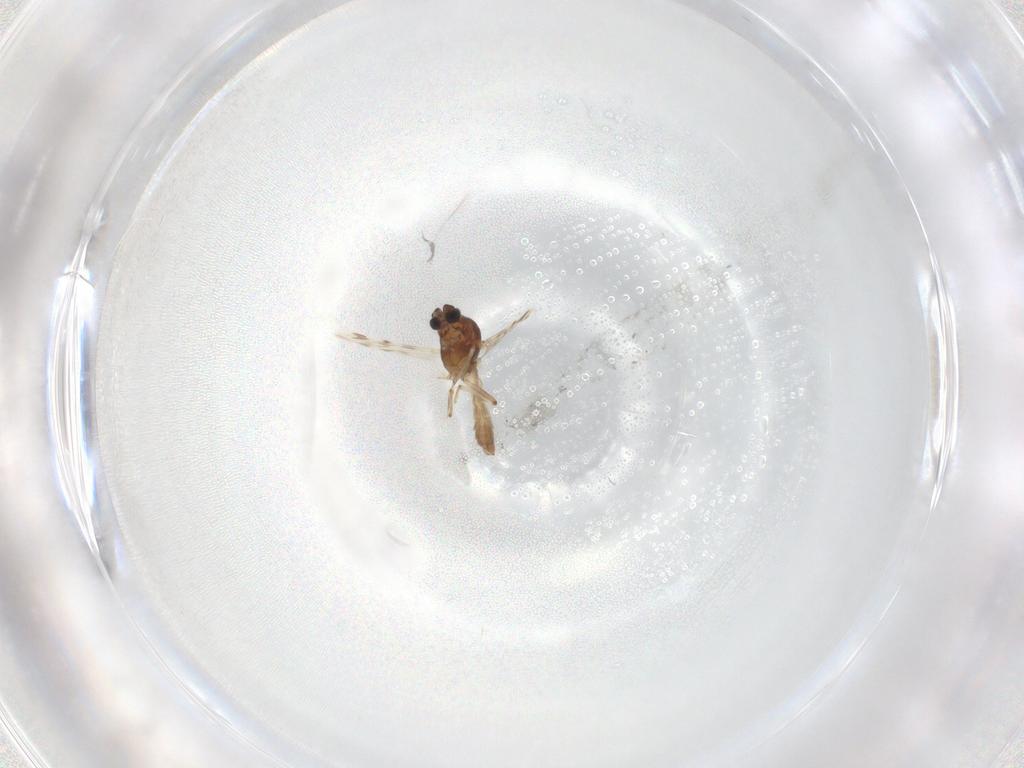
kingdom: Animalia
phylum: Arthropoda
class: Insecta
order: Diptera
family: Ceratopogonidae
